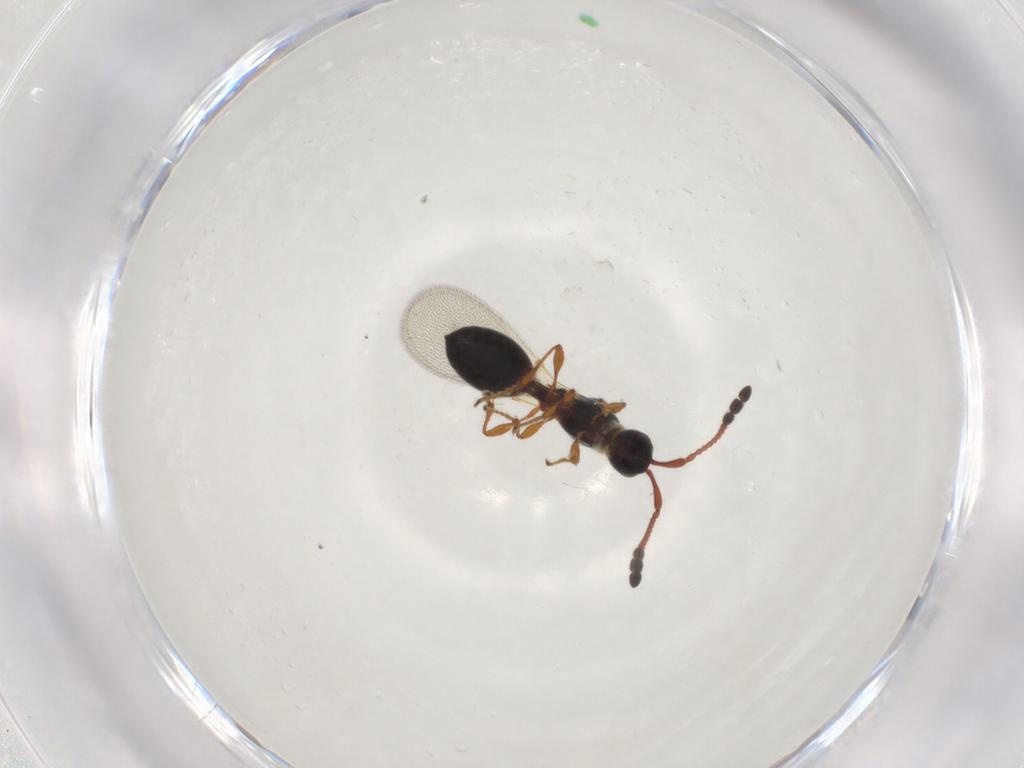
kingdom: Animalia
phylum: Arthropoda
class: Insecta
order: Hymenoptera
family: Diapriidae
